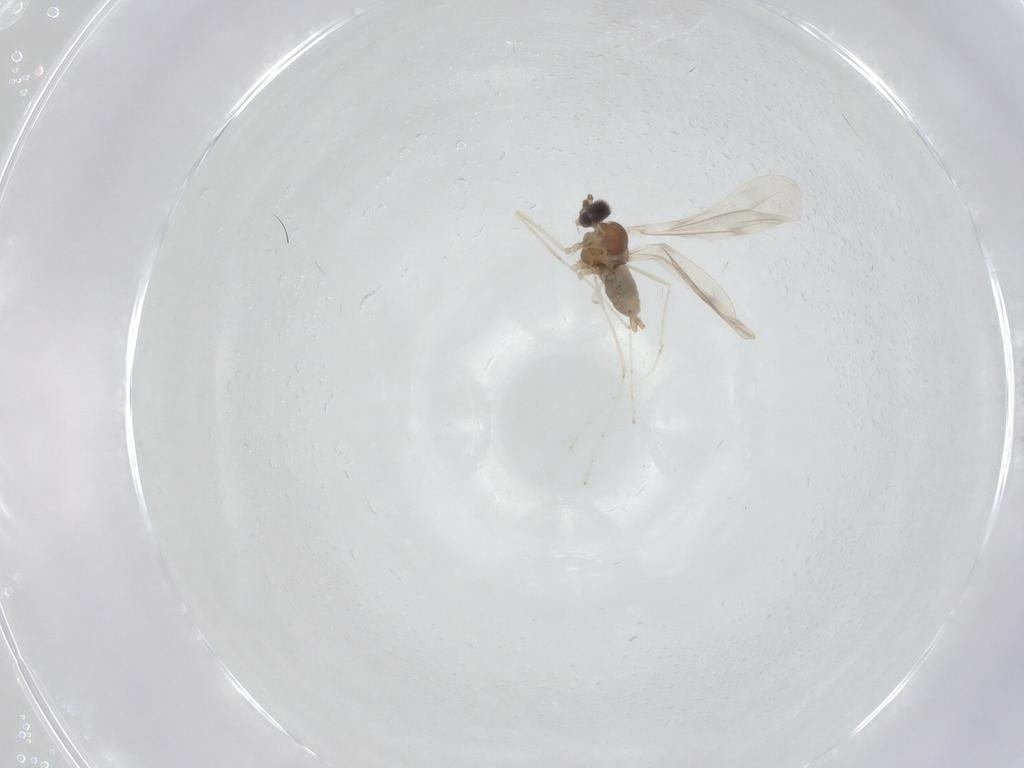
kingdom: Animalia
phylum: Arthropoda
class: Insecta
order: Diptera
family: Cecidomyiidae
